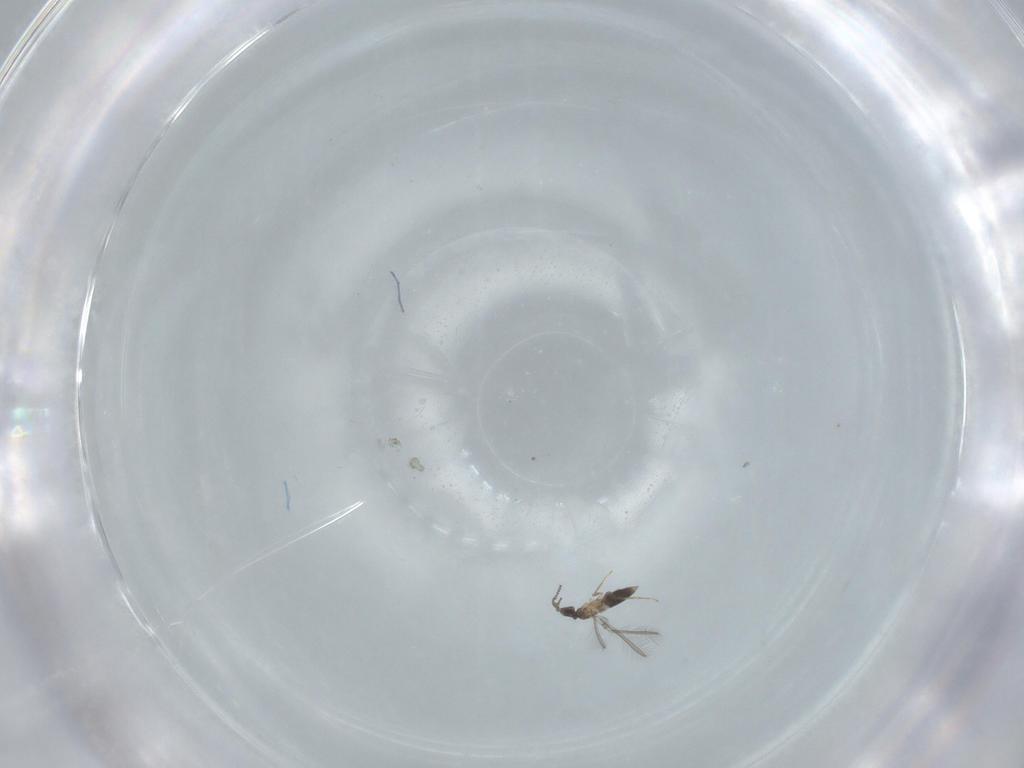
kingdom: Animalia
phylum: Arthropoda
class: Insecta
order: Hymenoptera
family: Mymaridae
